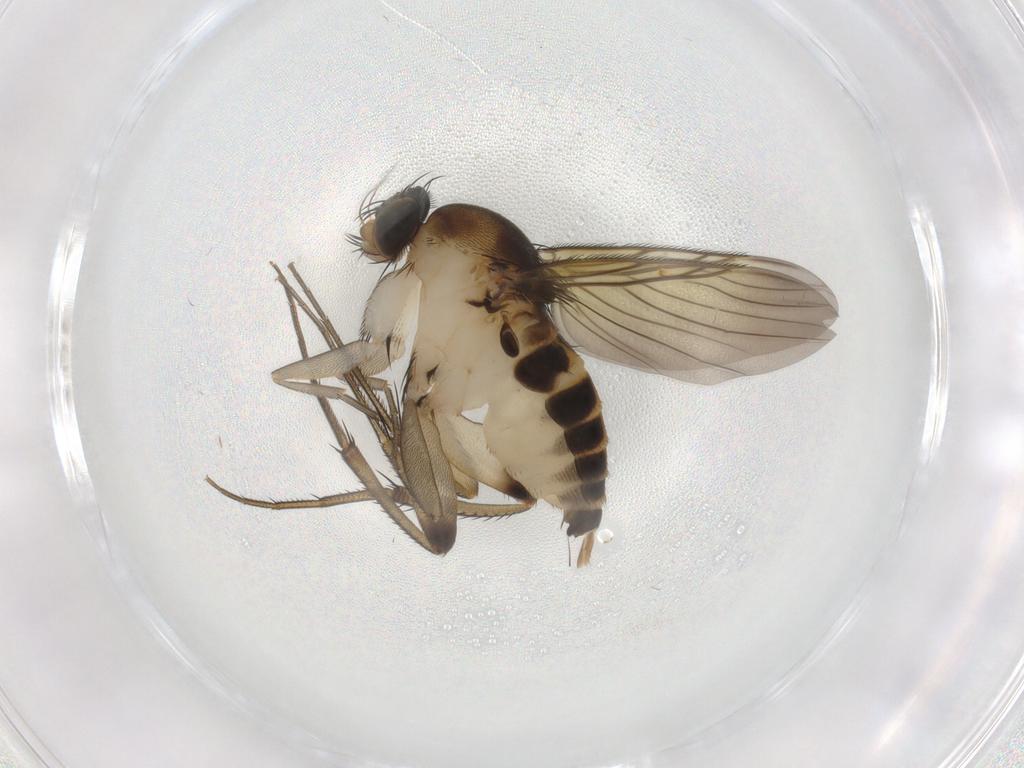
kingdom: Animalia
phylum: Arthropoda
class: Insecta
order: Diptera
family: Phoridae
